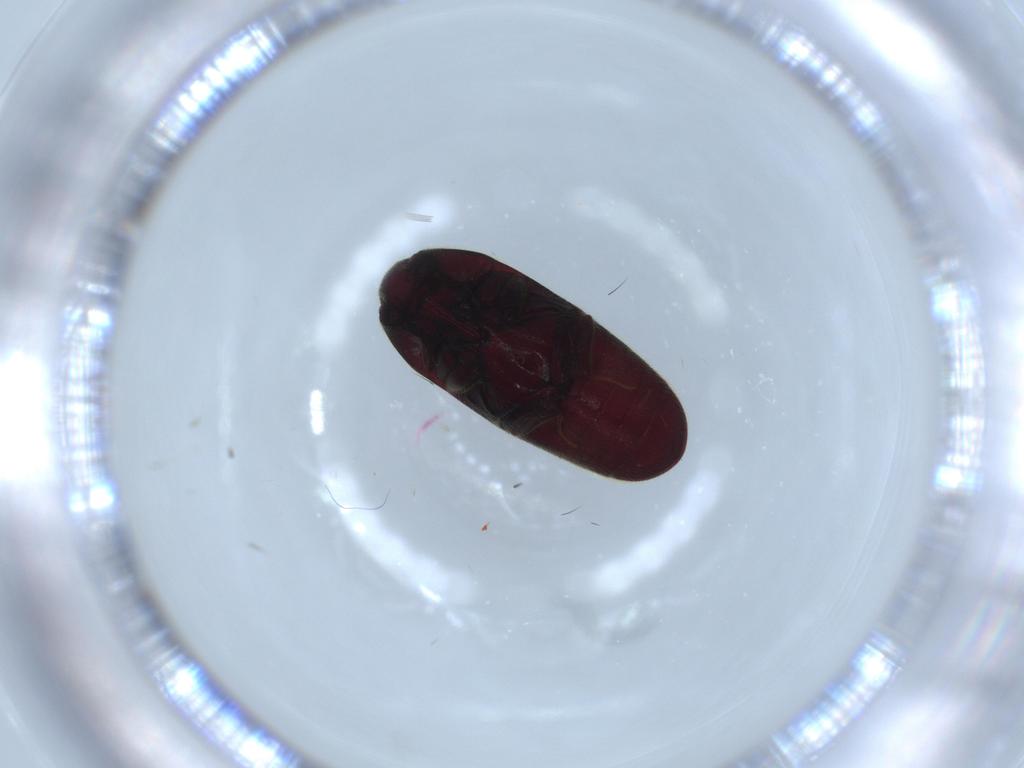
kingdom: Animalia
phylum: Arthropoda
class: Insecta
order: Coleoptera
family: Throscidae
